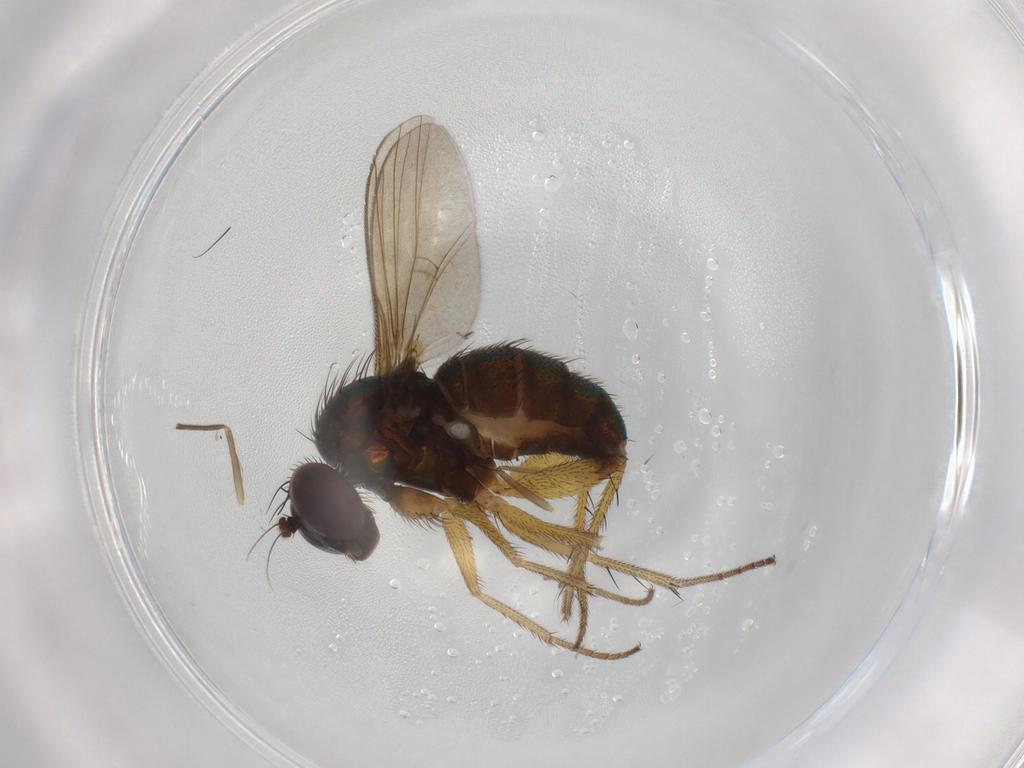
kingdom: Animalia
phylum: Arthropoda
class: Insecta
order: Diptera
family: Dolichopodidae
